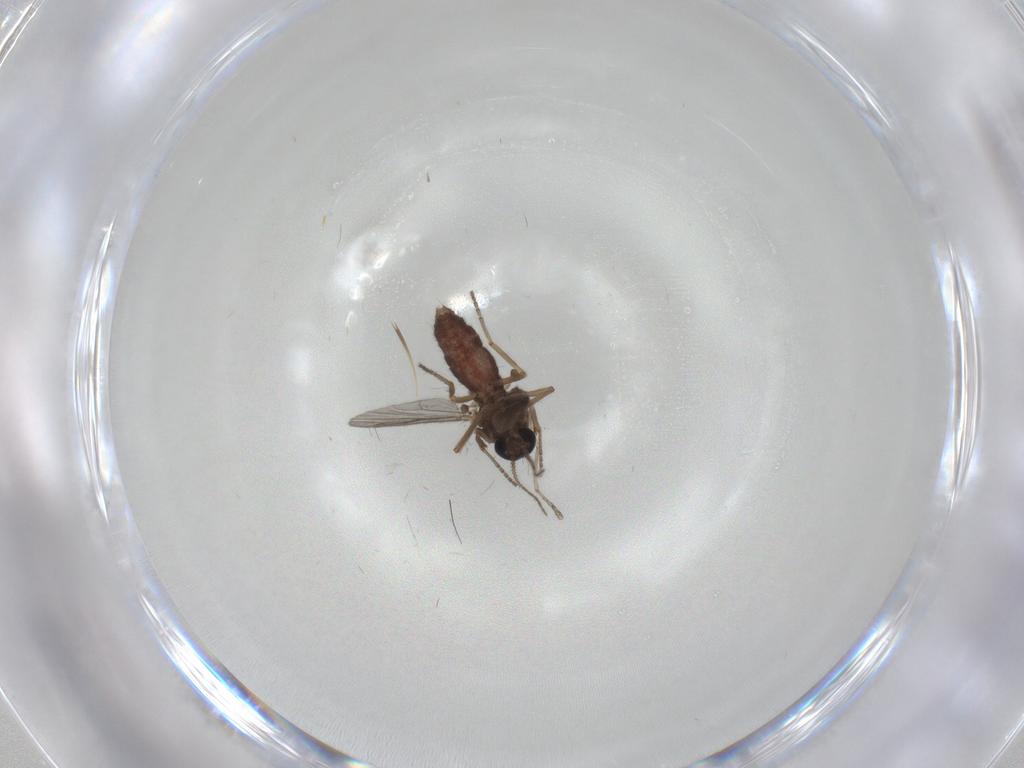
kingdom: Animalia
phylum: Arthropoda
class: Insecta
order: Diptera
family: Ceratopogonidae
